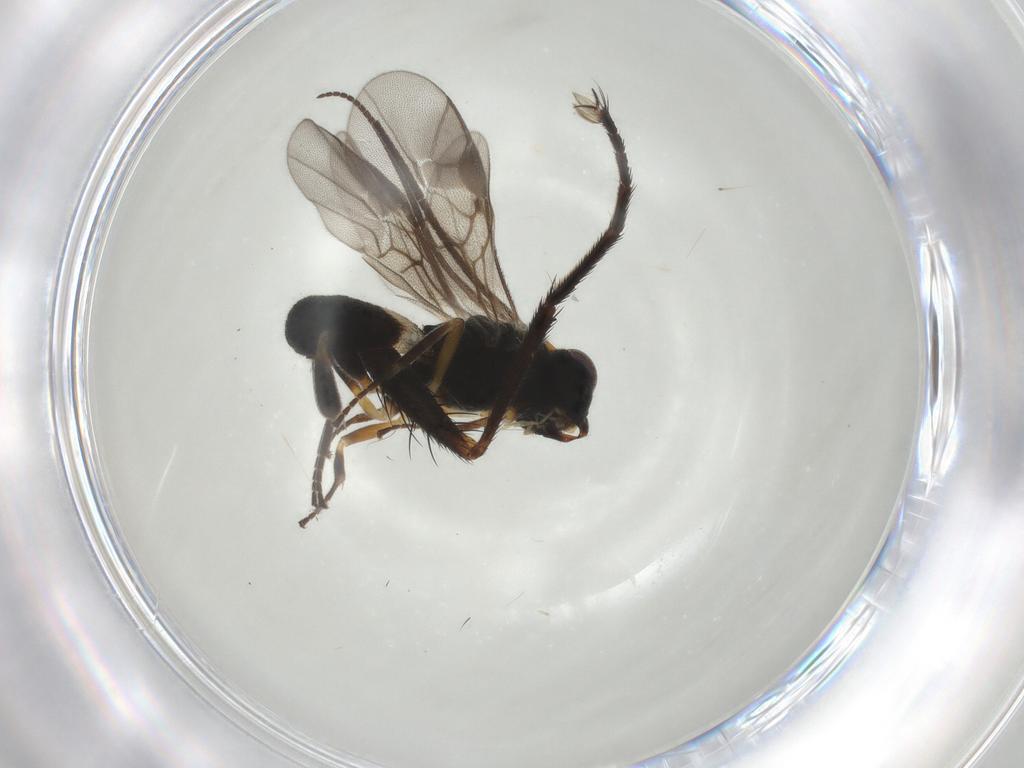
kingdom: Animalia
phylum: Arthropoda
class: Insecta
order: Hymenoptera
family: Braconidae
